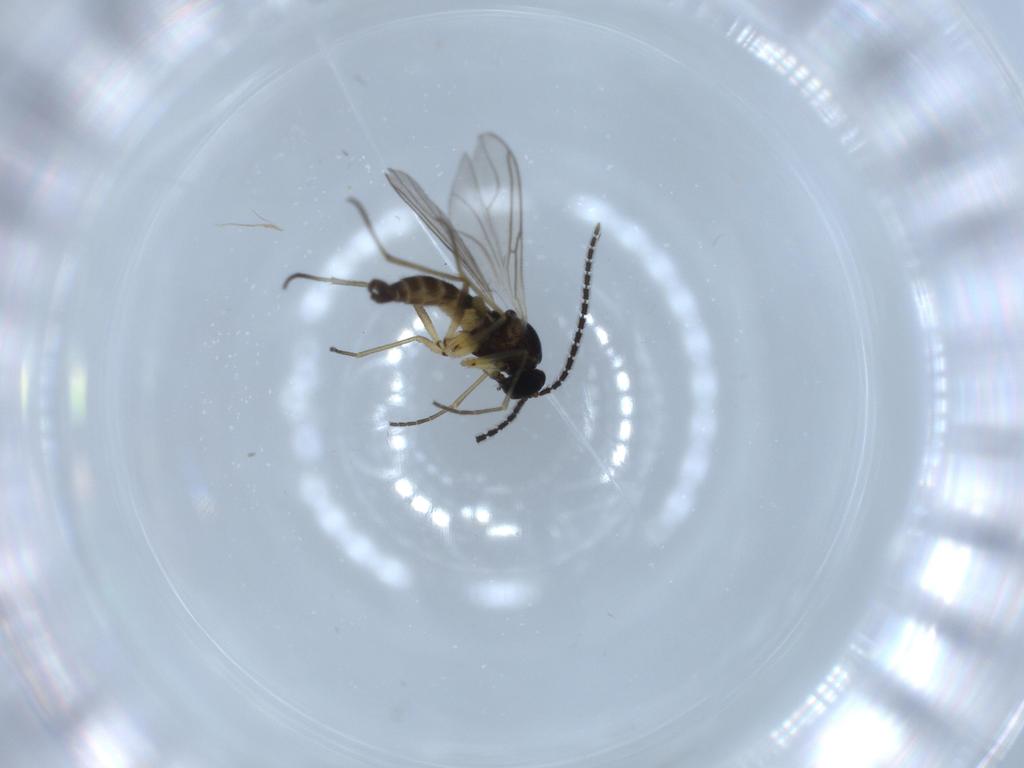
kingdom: Animalia
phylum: Arthropoda
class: Insecta
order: Diptera
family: Sciaridae
